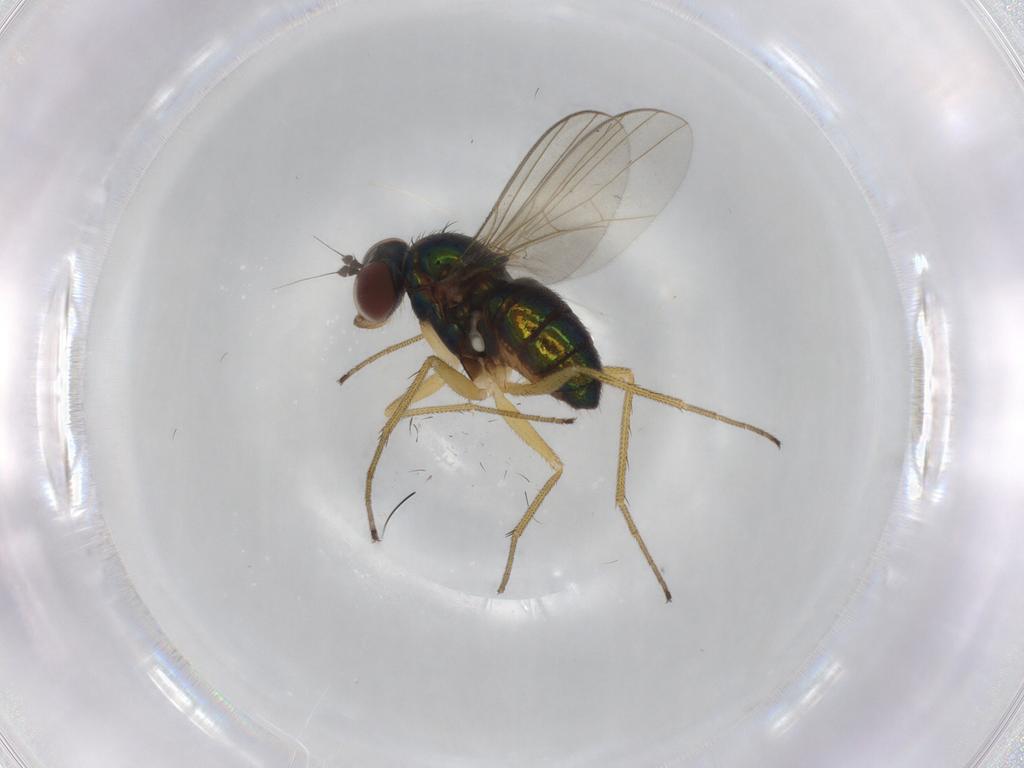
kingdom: Animalia
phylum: Arthropoda
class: Insecta
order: Diptera
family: Dolichopodidae
